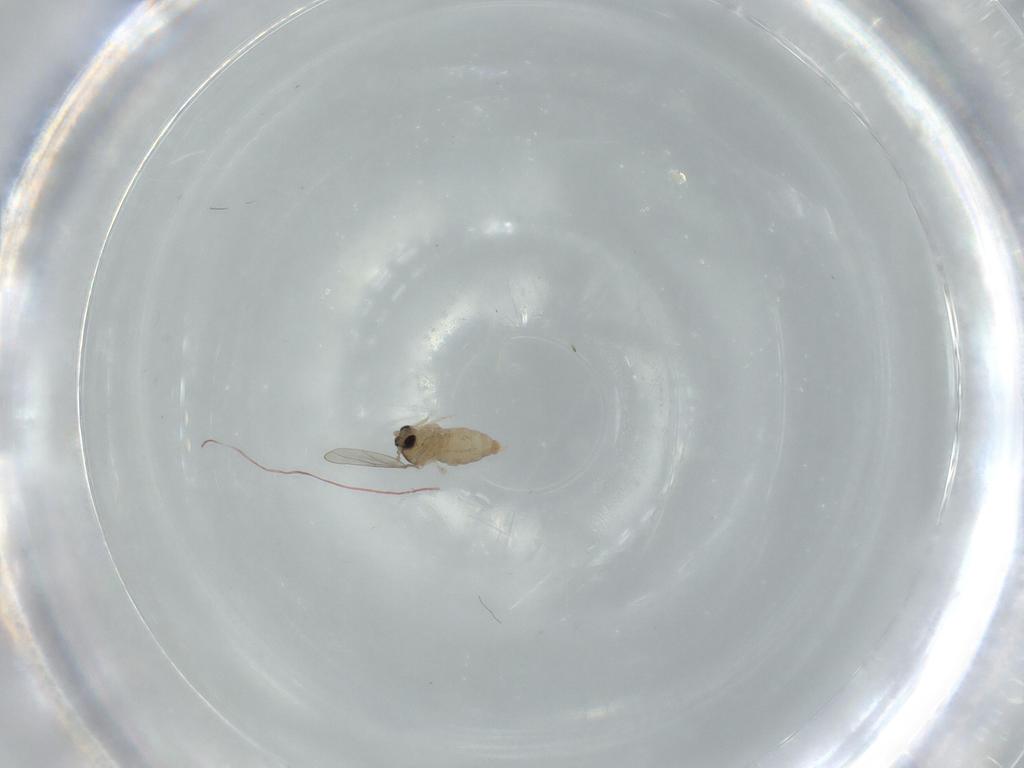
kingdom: Animalia
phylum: Arthropoda
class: Insecta
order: Diptera
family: Cecidomyiidae
